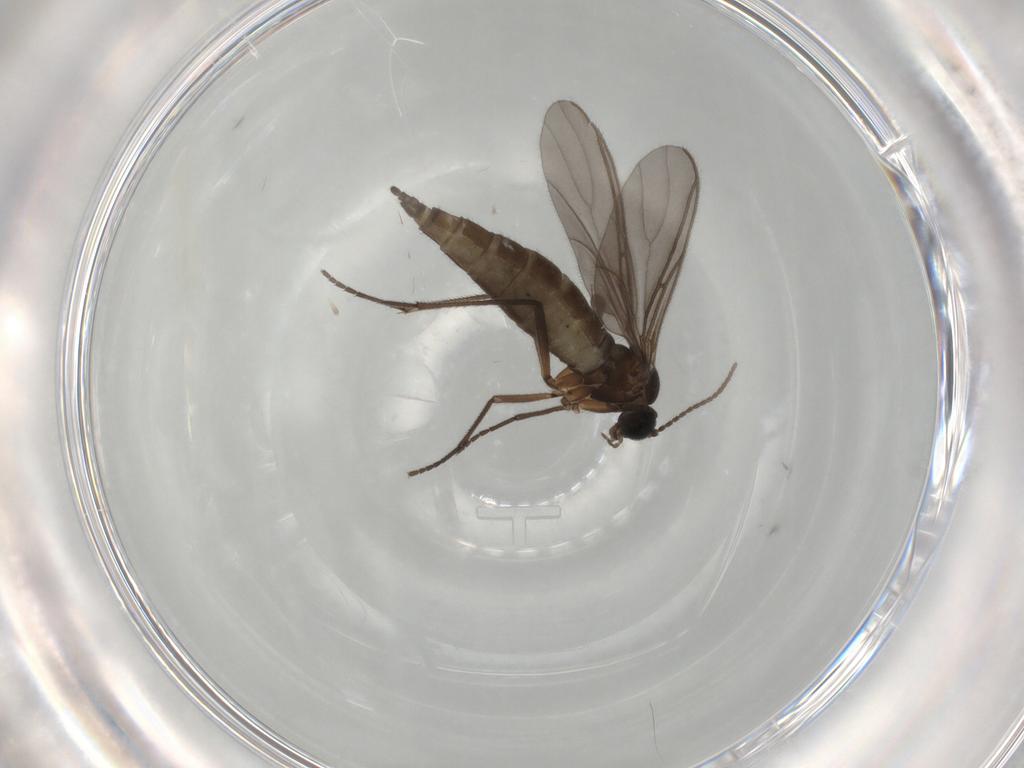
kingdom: Animalia
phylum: Arthropoda
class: Insecta
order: Diptera
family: Sciaridae
